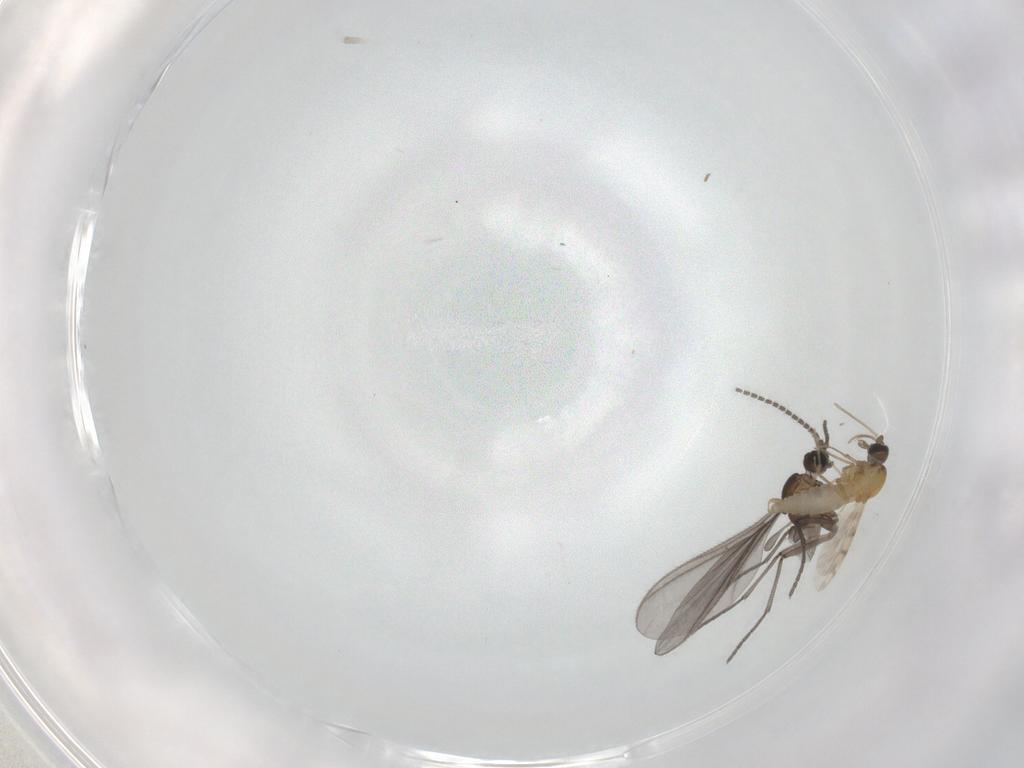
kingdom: Animalia
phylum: Arthropoda
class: Insecta
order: Diptera
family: Sciaridae
